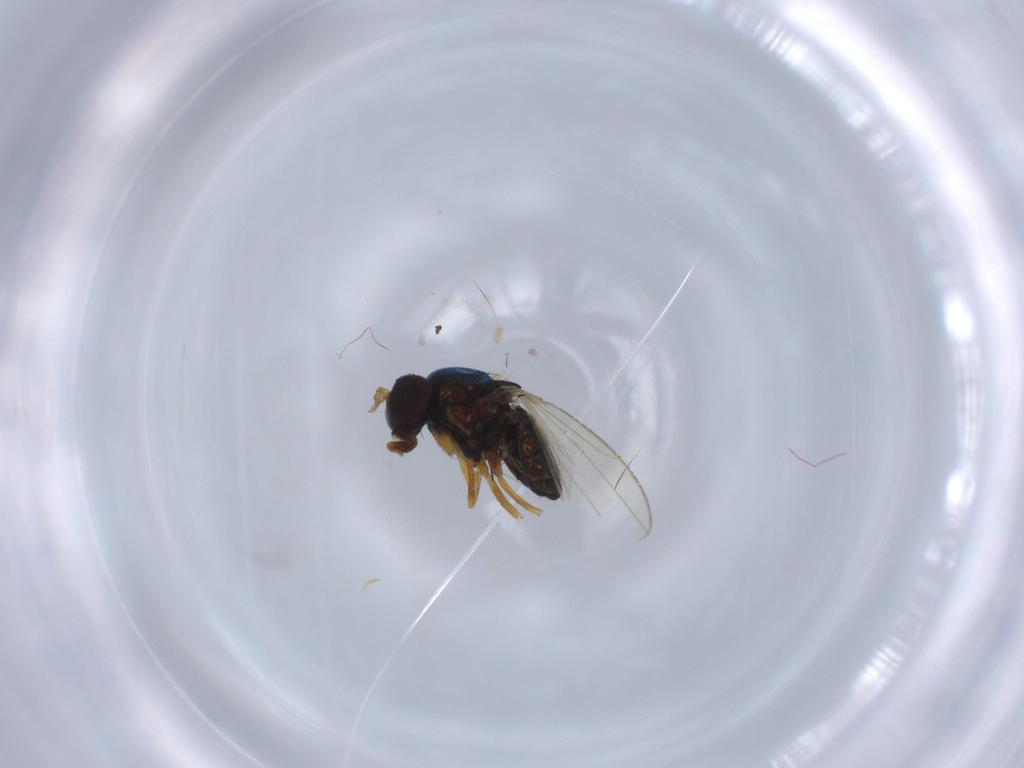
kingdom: Animalia
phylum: Arthropoda
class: Insecta
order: Diptera
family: Ephydridae
